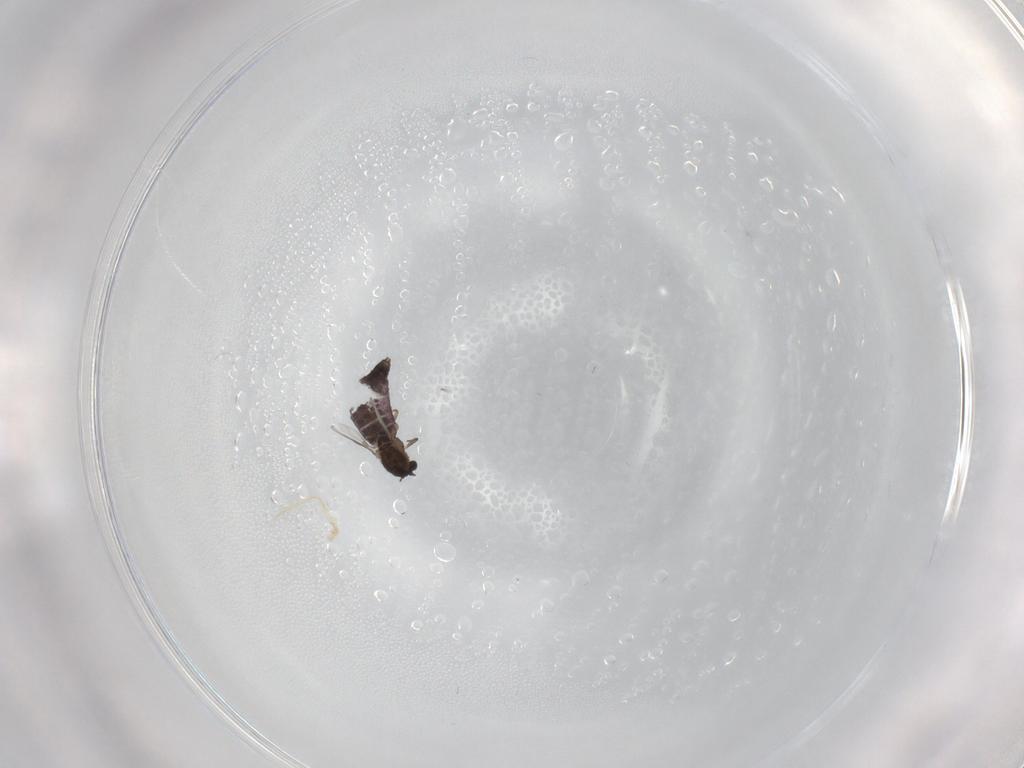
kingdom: Animalia
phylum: Arthropoda
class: Insecta
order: Diptera
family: Chironomidae
